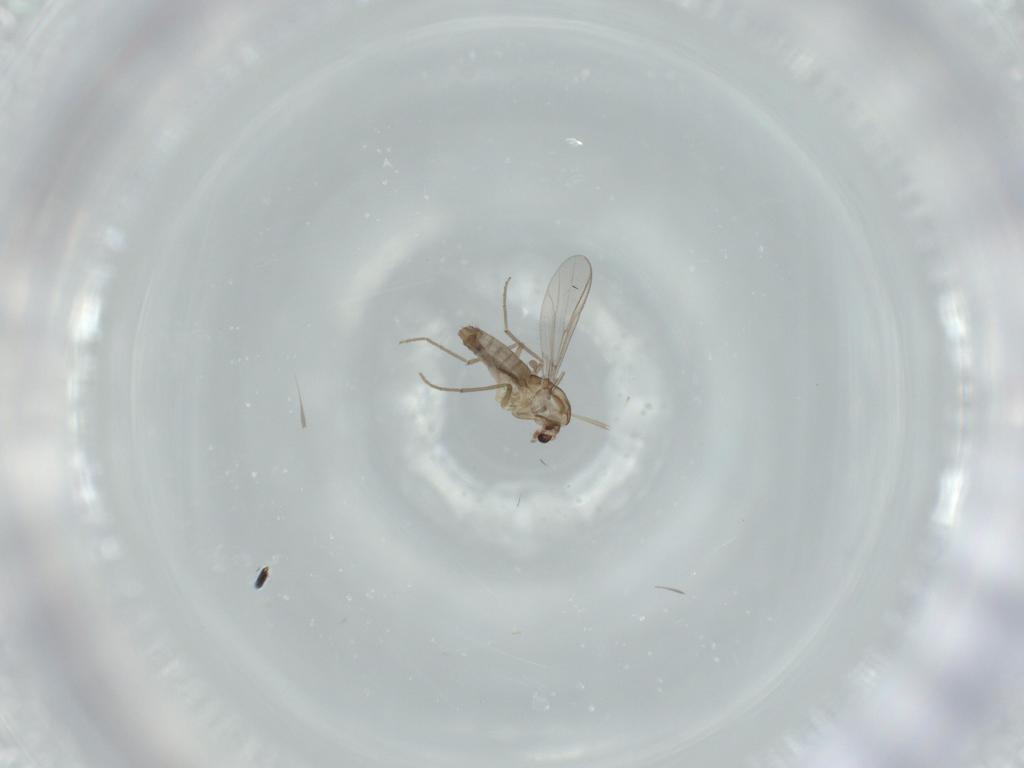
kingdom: Animalia
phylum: Arthropoda
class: Insecta
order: Diptera
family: Chironomidae
